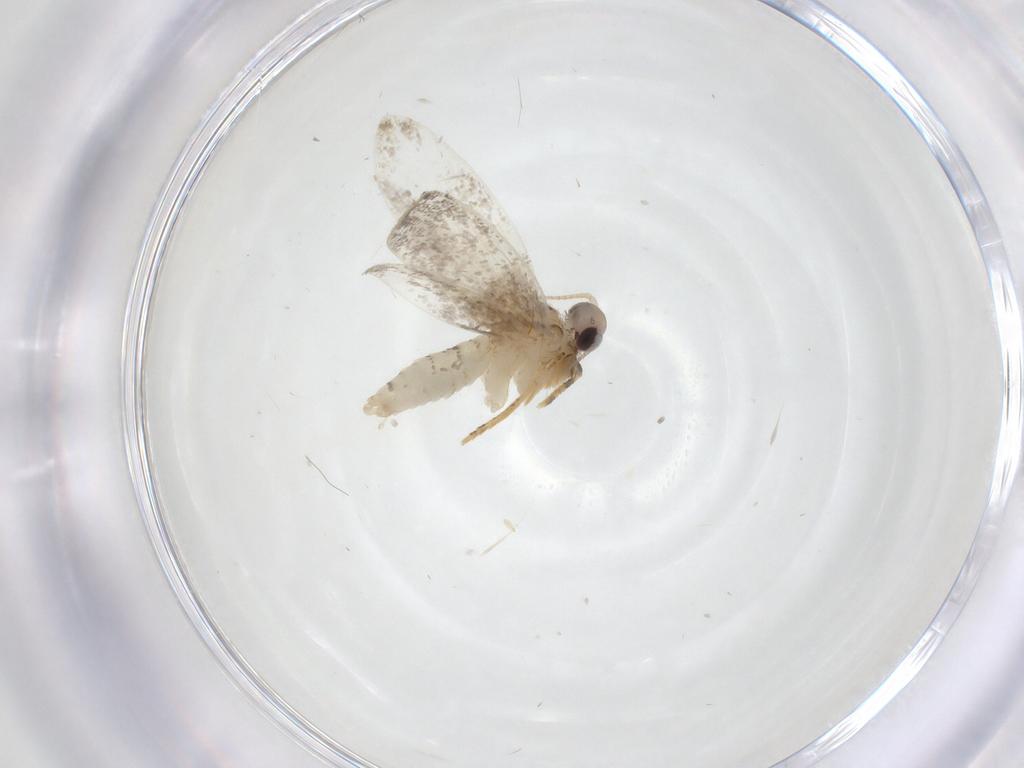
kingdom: Animalia
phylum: Arthropoda
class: Insecta
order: Lepidoptera
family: Psychidae
